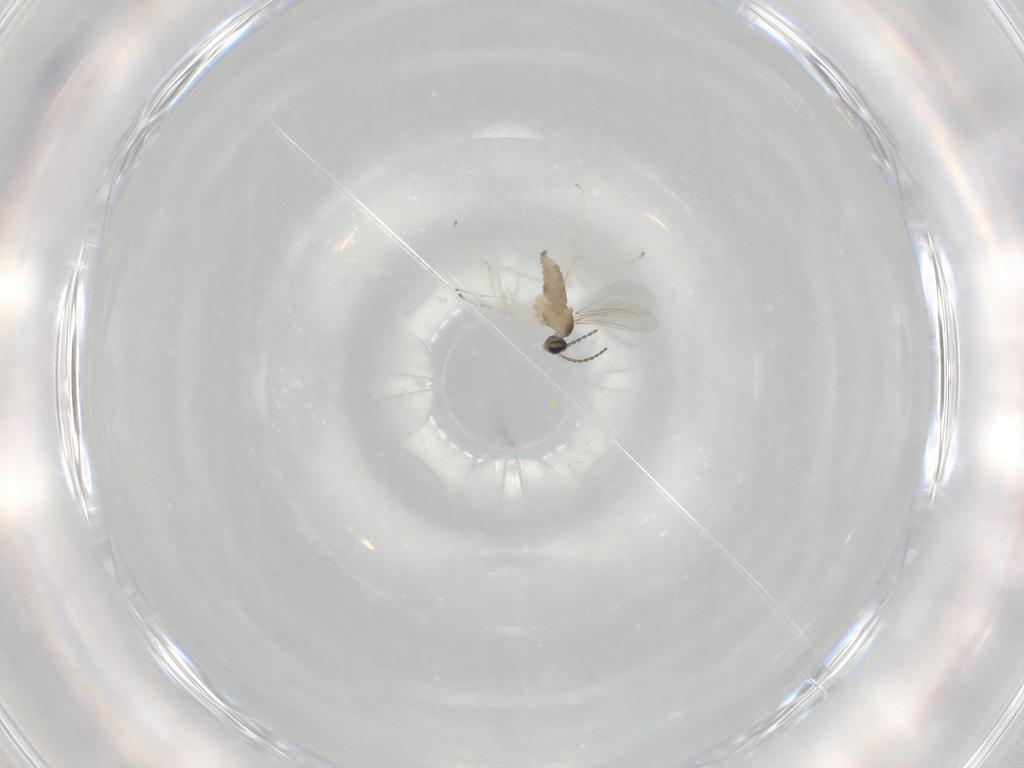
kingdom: Animalia
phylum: Arthropoda
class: Insecta
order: Diptera
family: Cecidomyiidae
